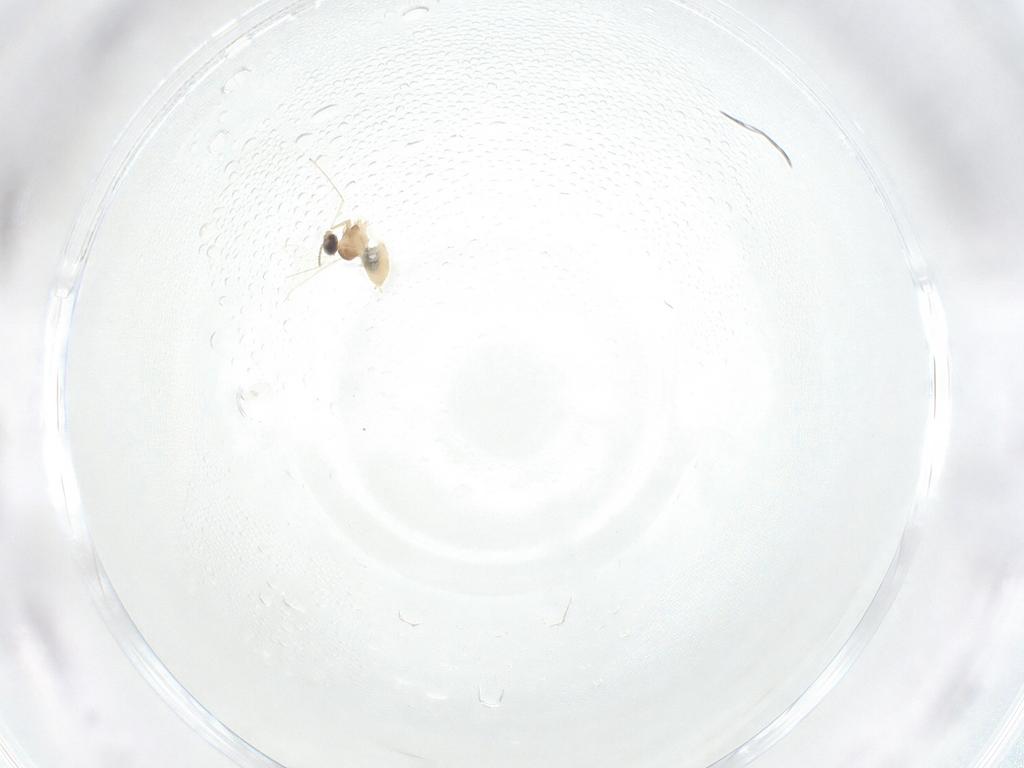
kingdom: Animalia
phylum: Arthropoda
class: Insecta
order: Diptera
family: Cecidomyiidae
